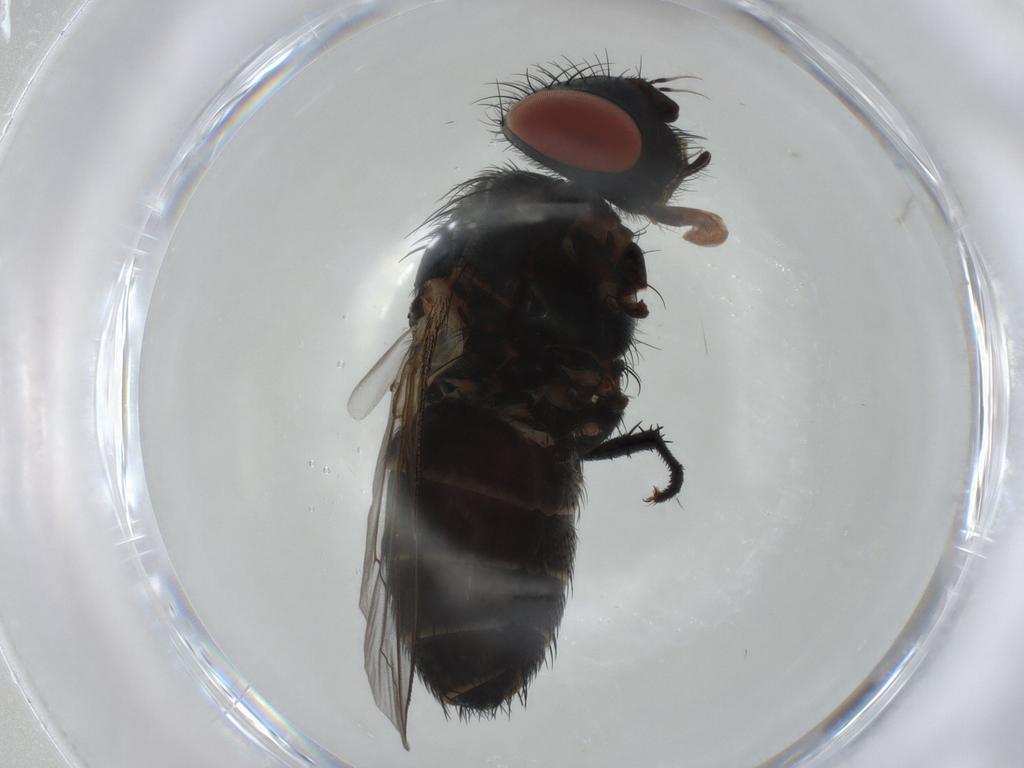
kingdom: Animalia
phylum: Arthropoda
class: Insecta
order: Diptera
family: Sarcophagidae
